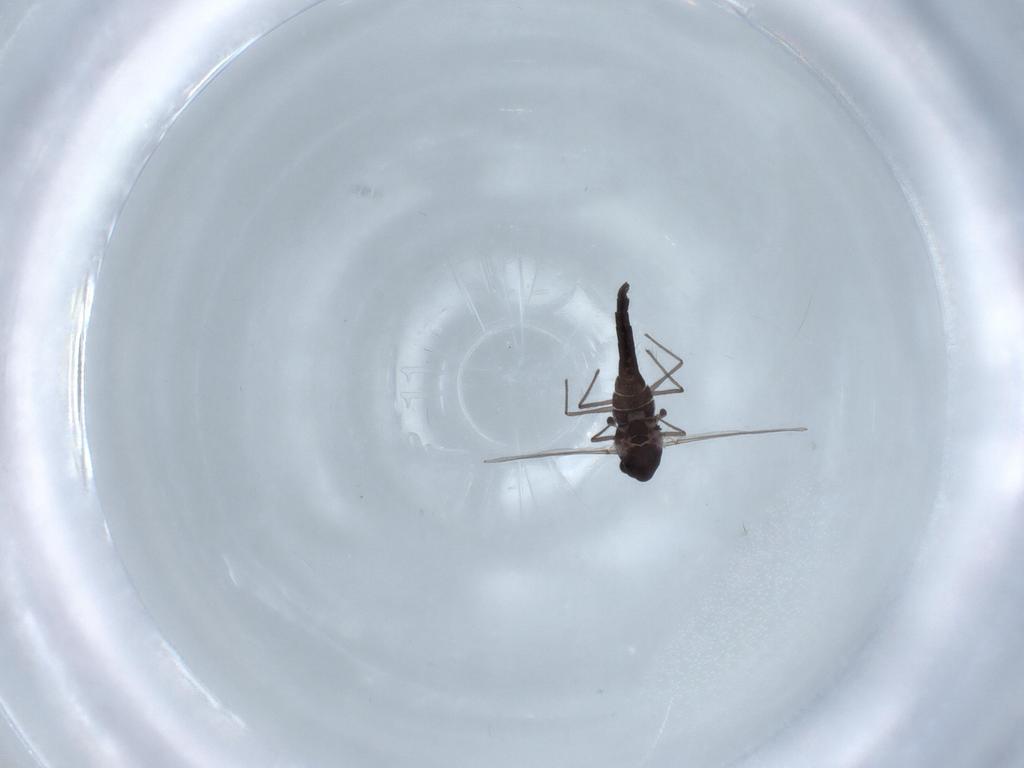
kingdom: Animalia
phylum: Arthropoda
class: Insecta
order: Diptera
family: Chironomidae
